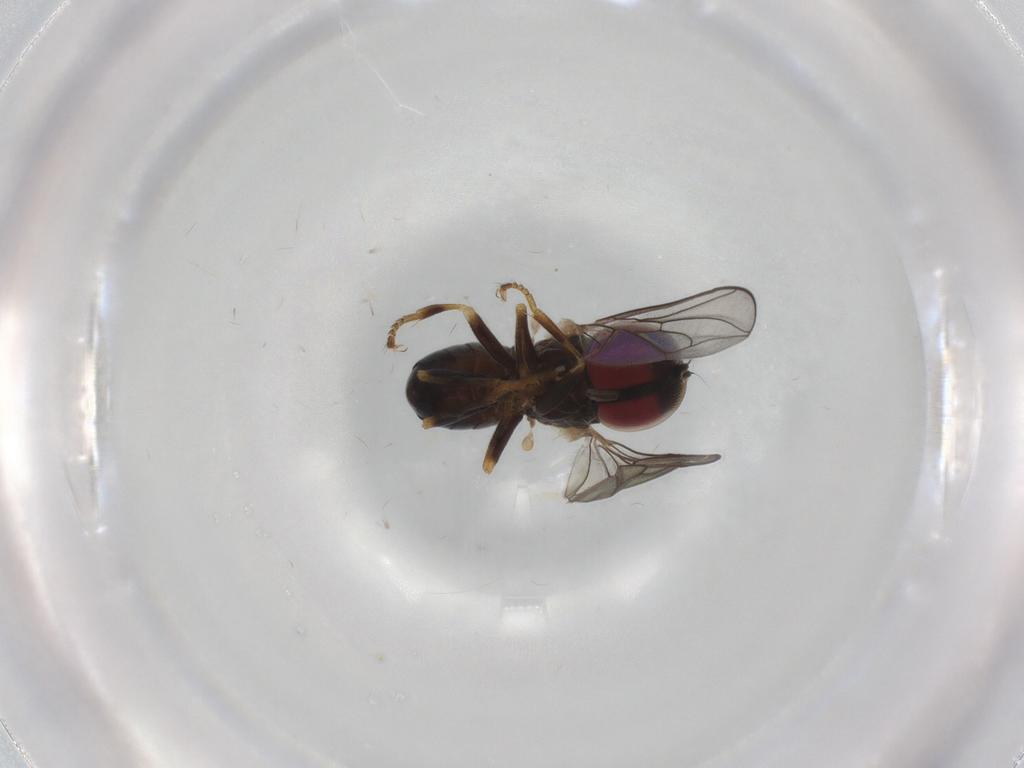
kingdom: Animalia
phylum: Arthropoda
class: Insecta
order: Diptera
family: Pipunculidae
